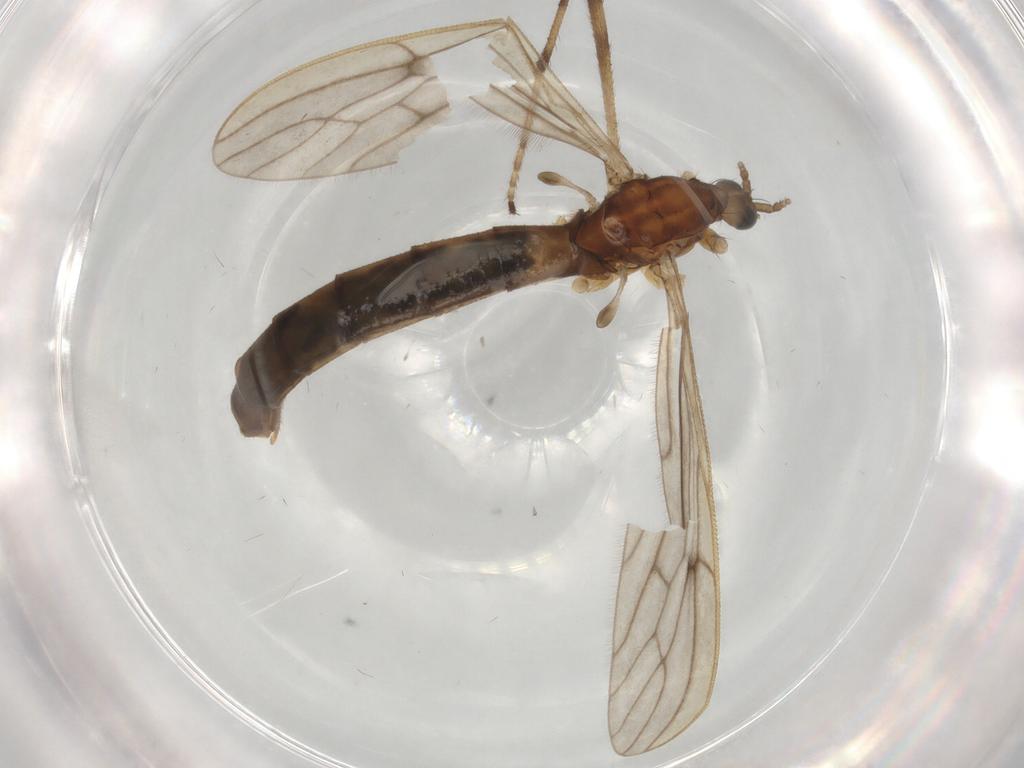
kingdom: Animalia
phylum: Arthropoda
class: Insecta
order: Diptera
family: Limoniidae
